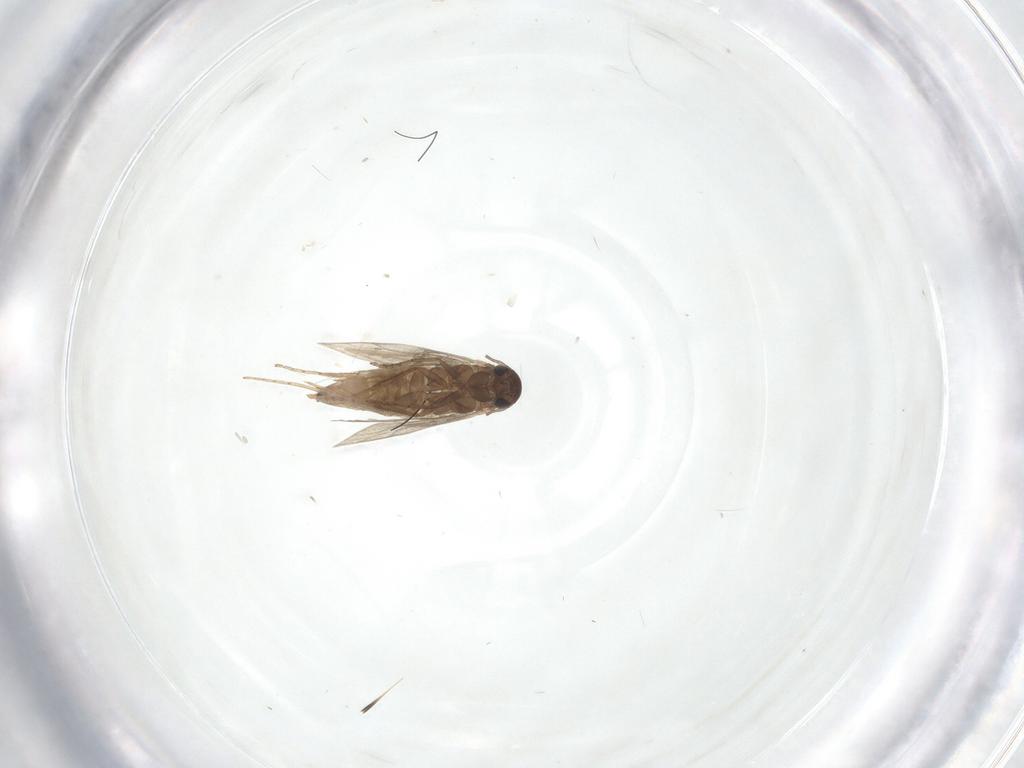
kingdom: Animalia
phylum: Arthropoda
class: Insecta
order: Lepidoptera
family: Heliozelidae
